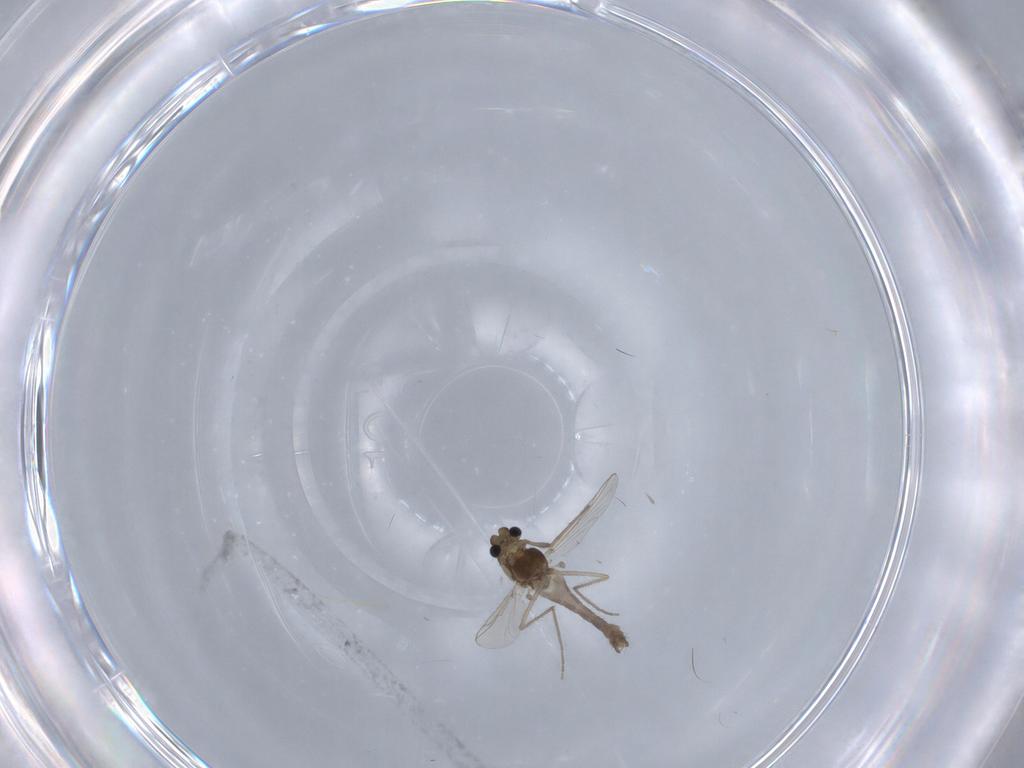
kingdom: Animalia
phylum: Arthropoda
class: Insecta
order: Diptera
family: Chironomidae
